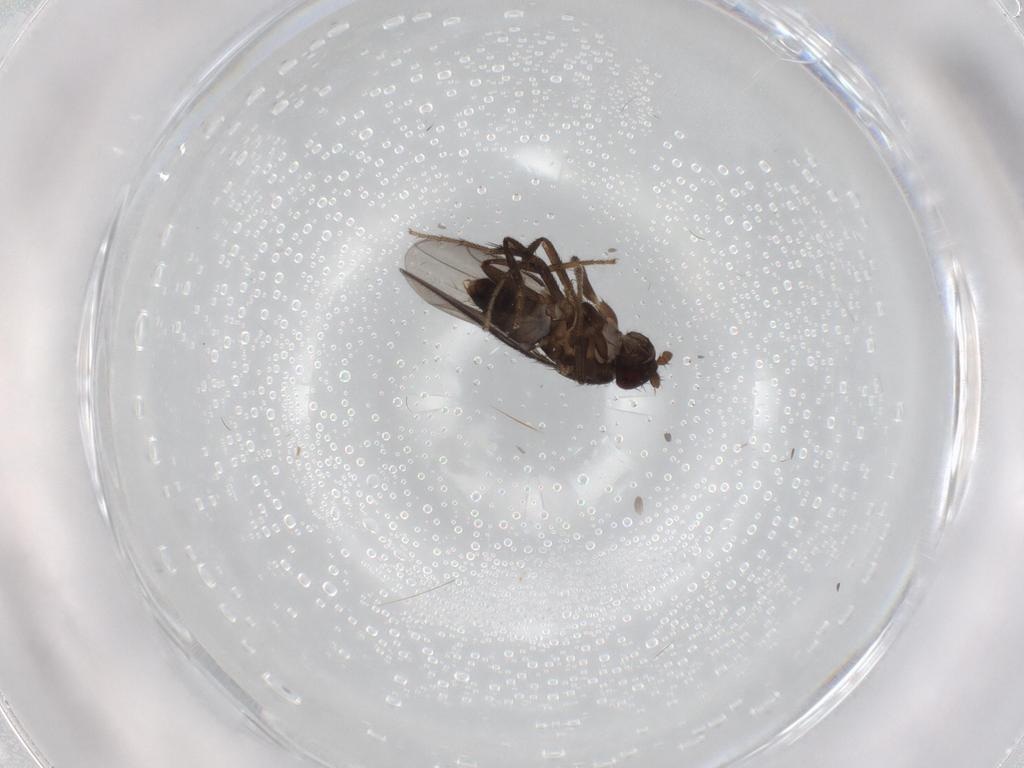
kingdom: Animalia
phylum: Arthropoda
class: Insecta
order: Diptera
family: Sphaeroceridae
